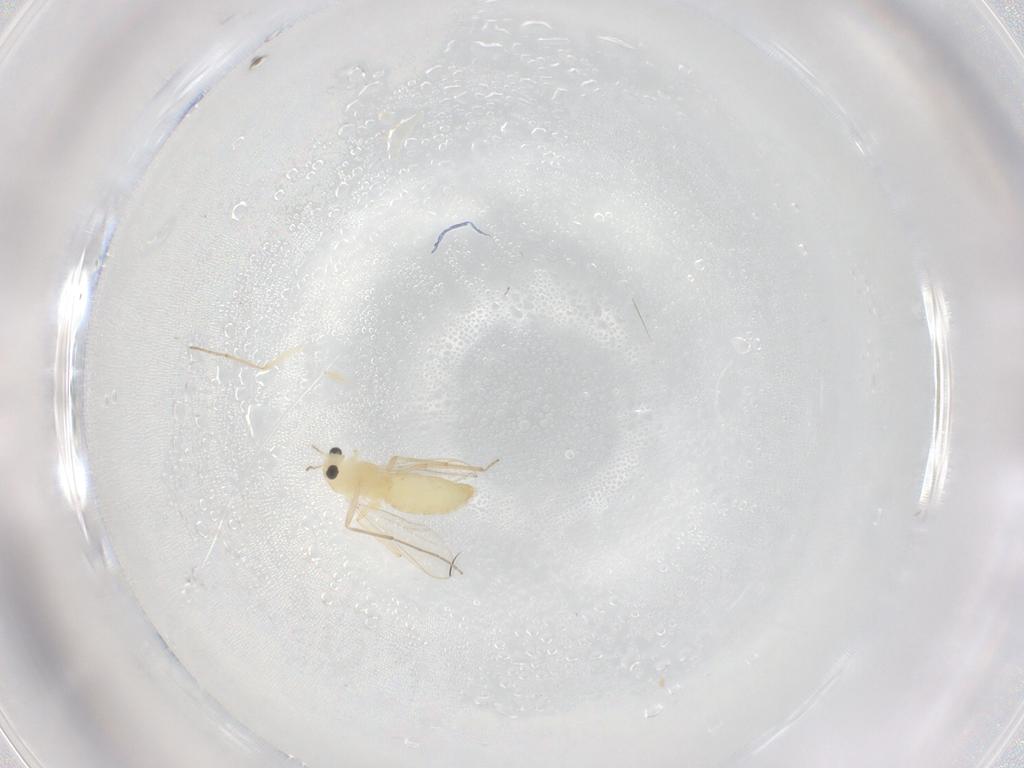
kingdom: Animalia
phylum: Arthropoda
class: Insecta
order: Diptera
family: Chironomidae
